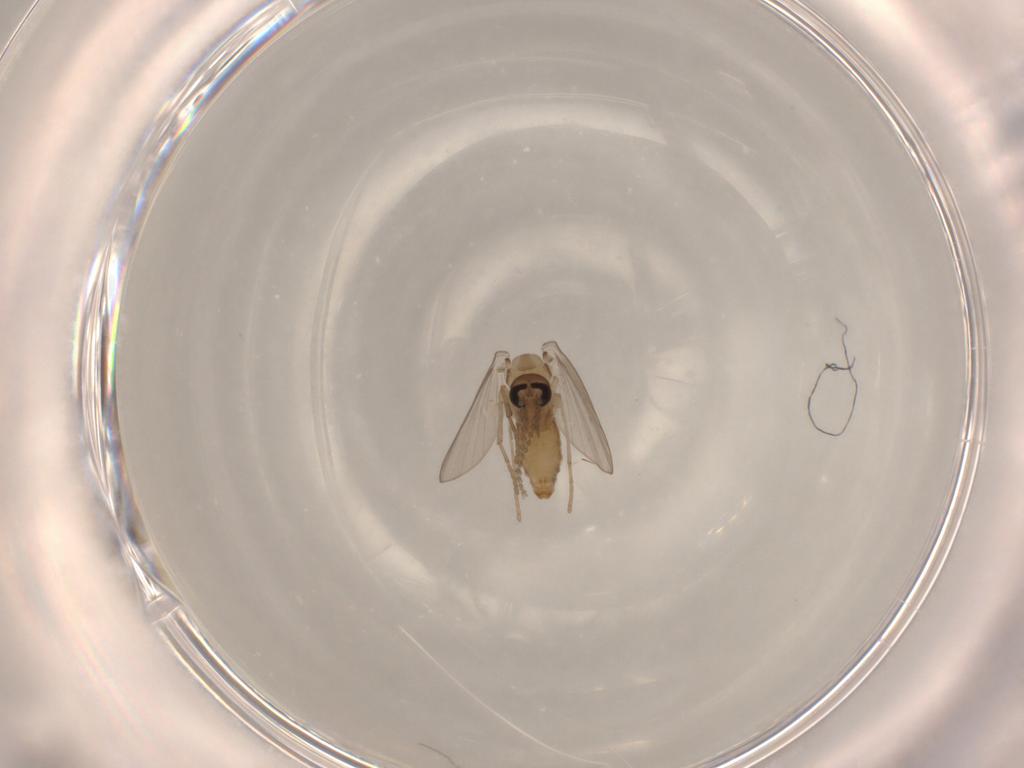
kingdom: Animalia
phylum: Arthropoda
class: Insecta
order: Diptera
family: Psychodidae
